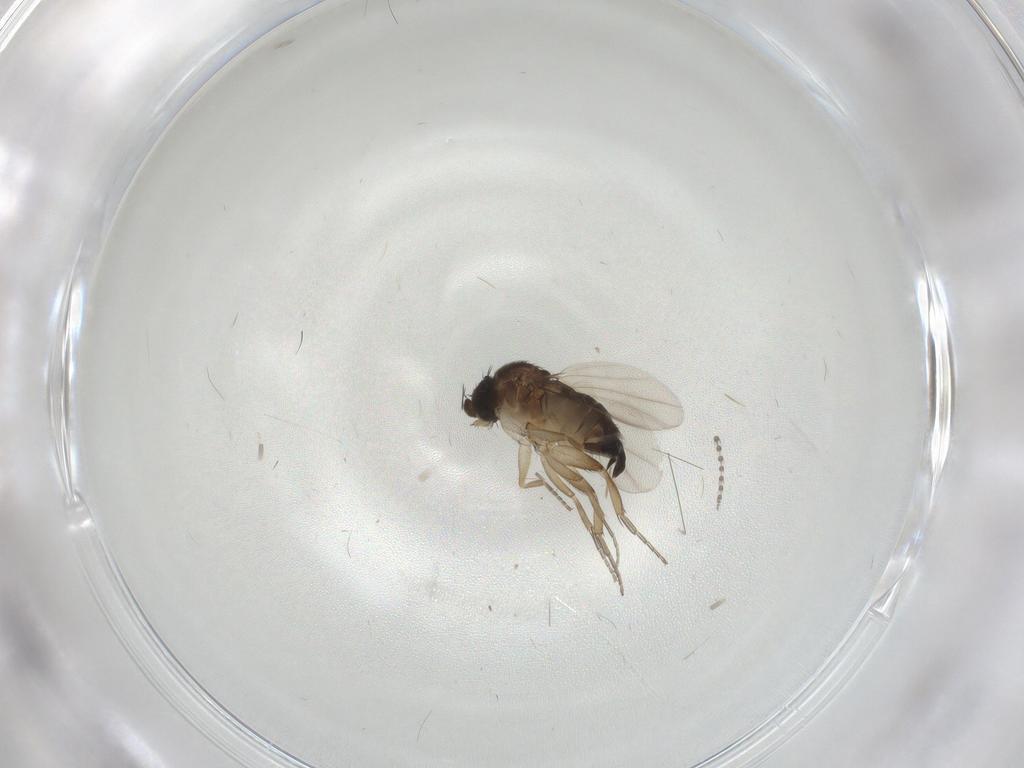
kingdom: Animalia
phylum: Arthropoda
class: Insecta
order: Diptera
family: Phoridae
